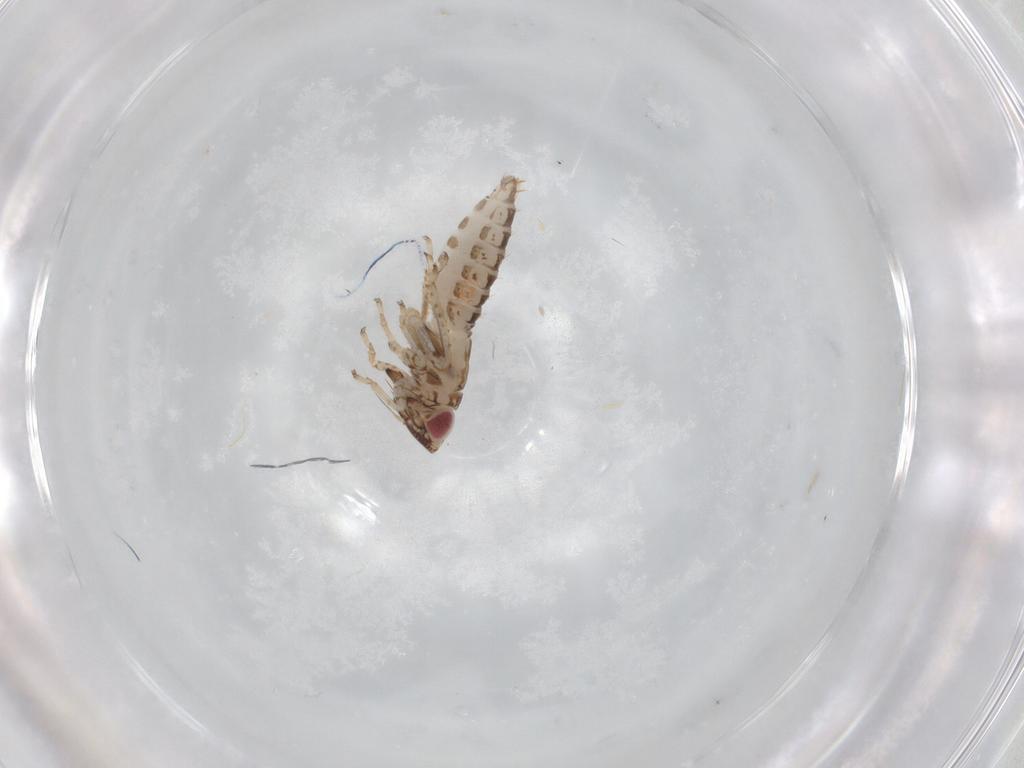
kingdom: Animalia
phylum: Arthropoda
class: Insecta
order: Hemiptera
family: Cicadellidae
